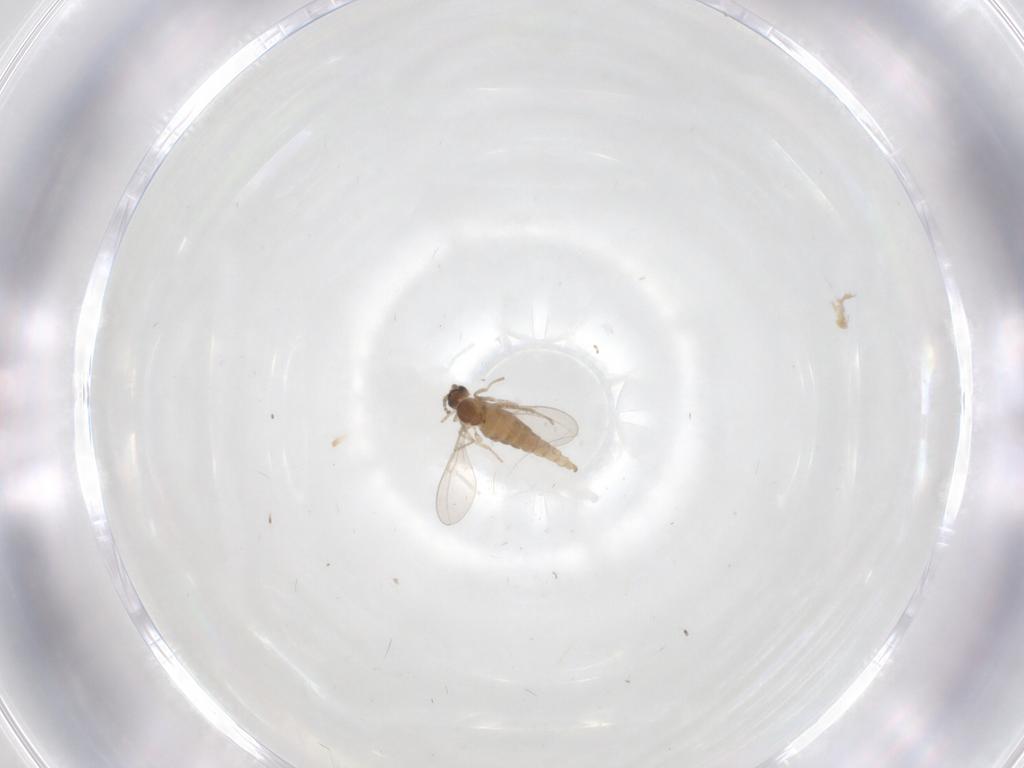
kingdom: Animalia
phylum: Arthropoda
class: Insecta
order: Diptera
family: Cecidomyiidae
